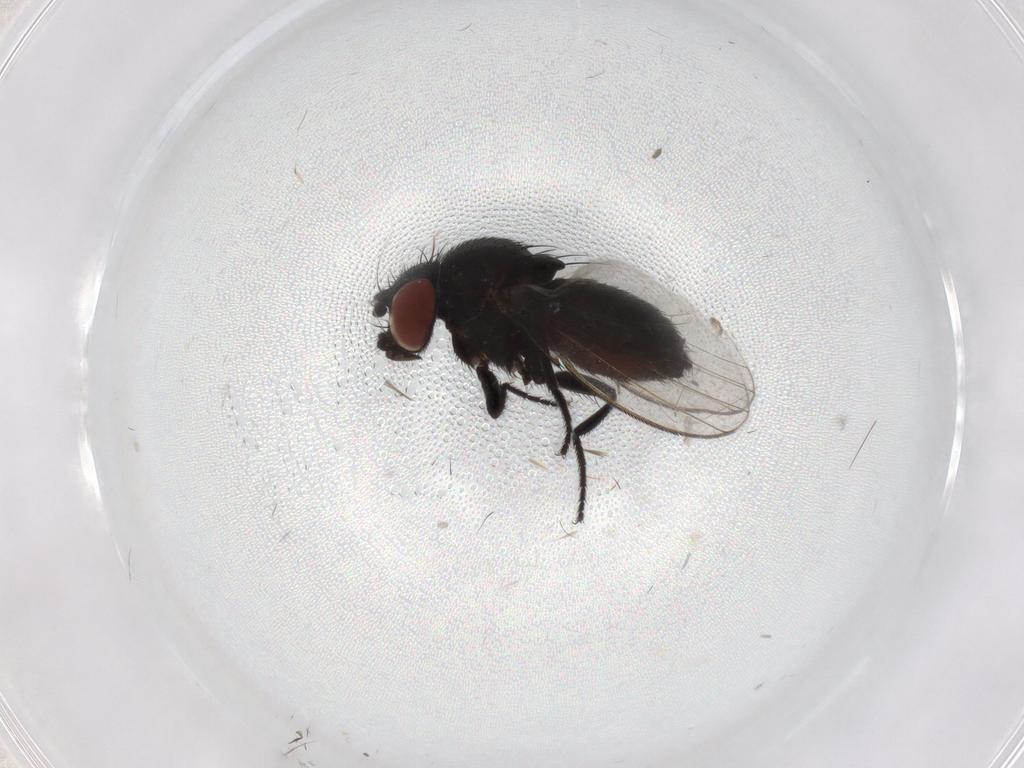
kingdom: Animalia
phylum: Arthropoda
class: Insecta
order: Diptera
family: Milichiidae
